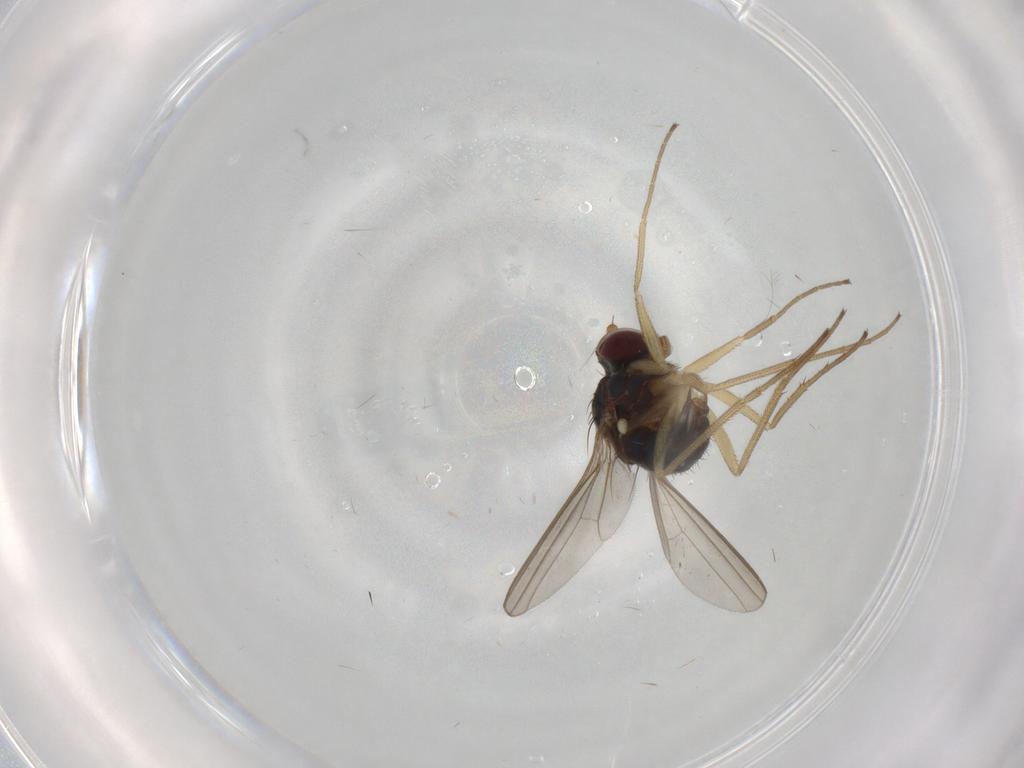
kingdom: Animalia
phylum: Arthropoda
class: Insecta
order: Diptera
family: Dolichopodidae
